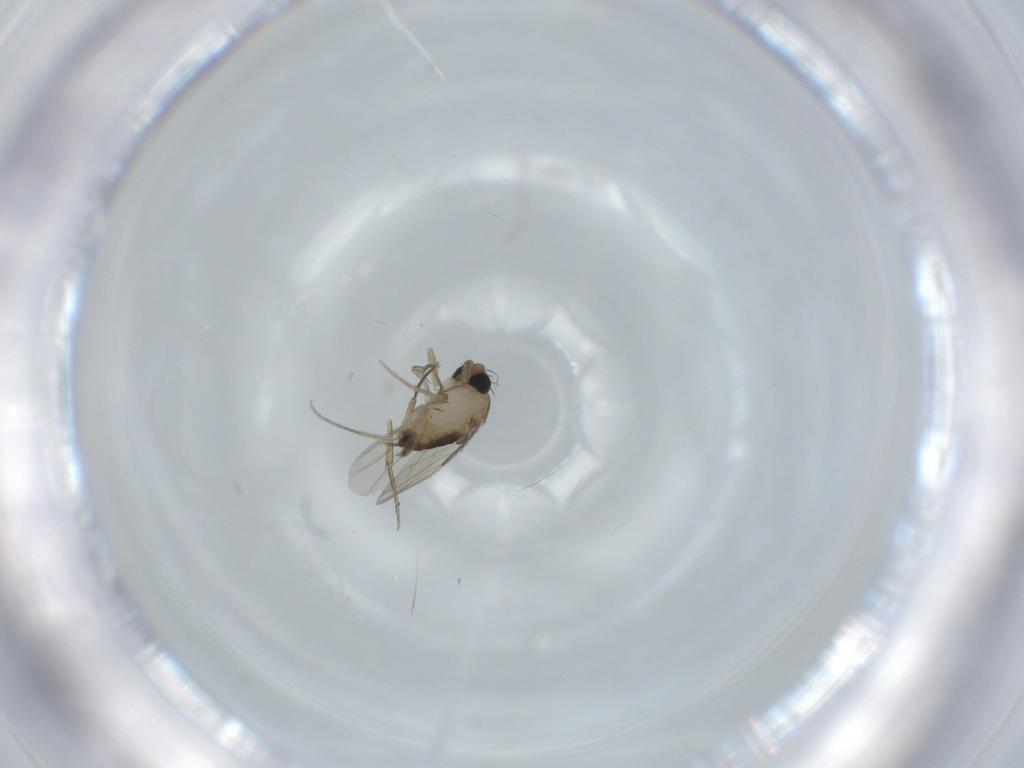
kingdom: Animalia
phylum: Arthropoda
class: Insecta
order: Diptera
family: Phoridae
